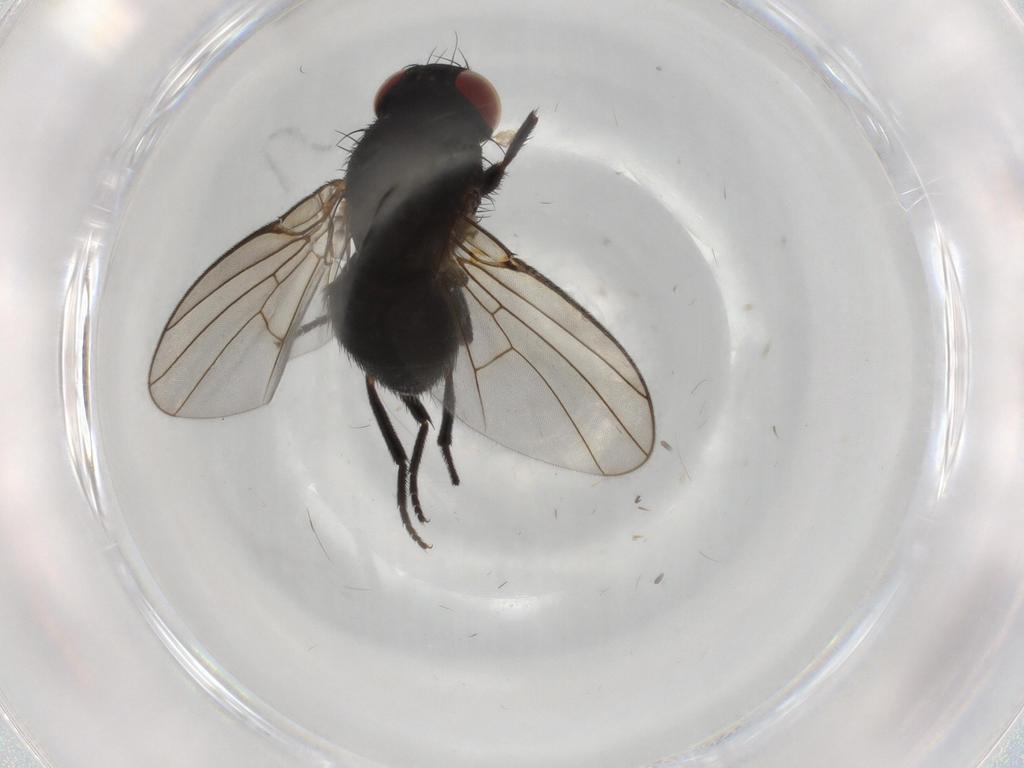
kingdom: Animalia
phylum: Arthropoda
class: Insecta
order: Diptera
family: Agromyzidae
